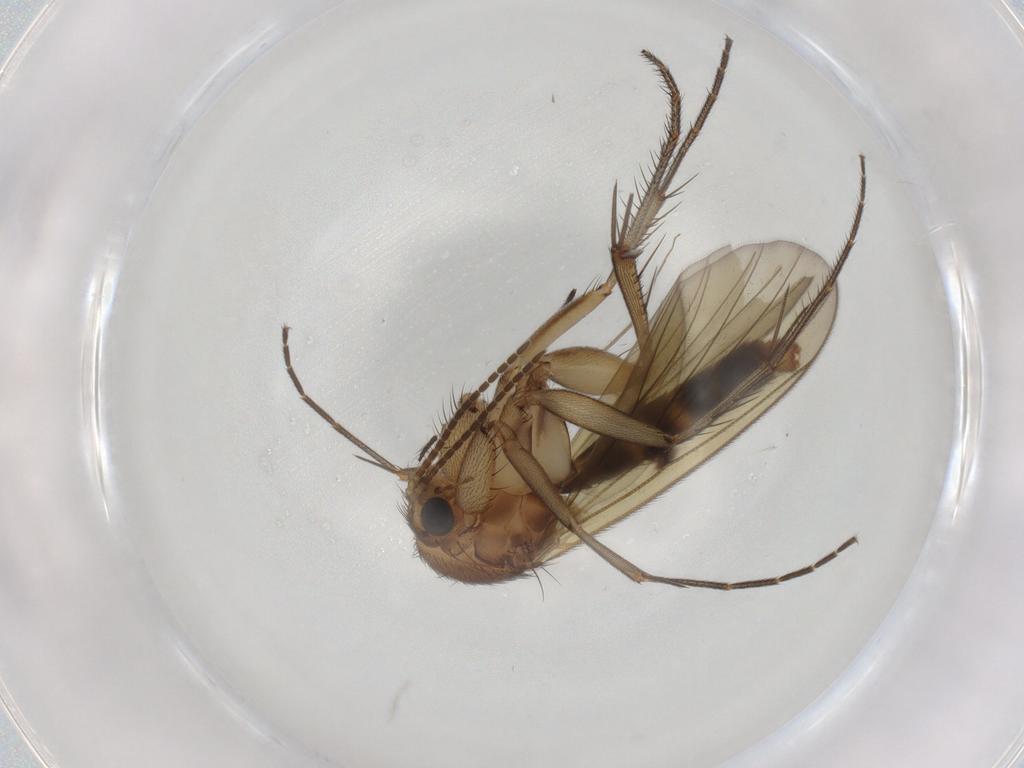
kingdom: Animalia
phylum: Arthropoda
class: Insecta
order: Diptera
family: Mycetophilidae
